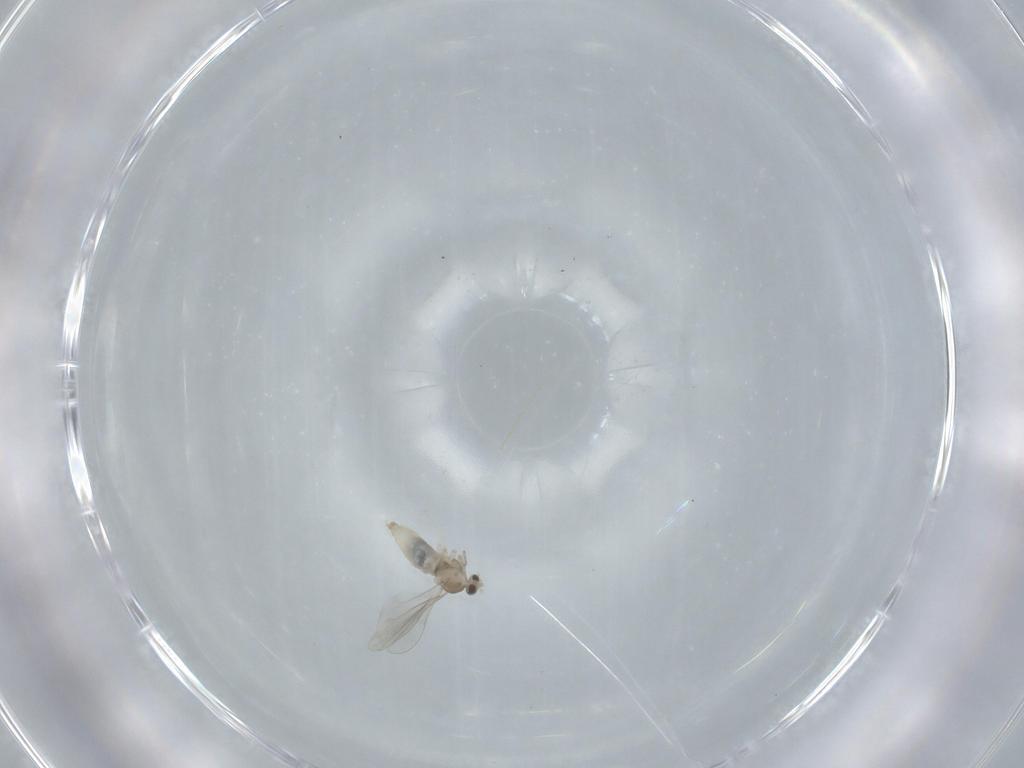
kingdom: Animalia
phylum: Arthropoda
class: Insecta
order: Diptera
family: Cecidomyiidae
